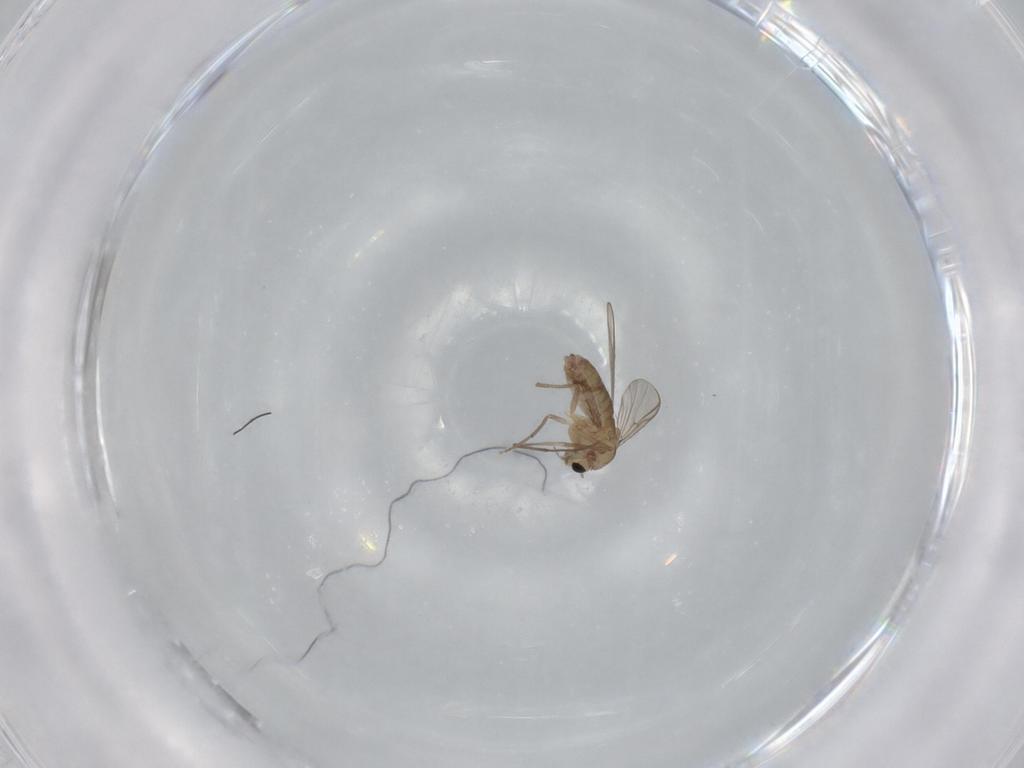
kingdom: Animalia
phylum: Arthropoda
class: Insecta
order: Diptera
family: Chironomidae
